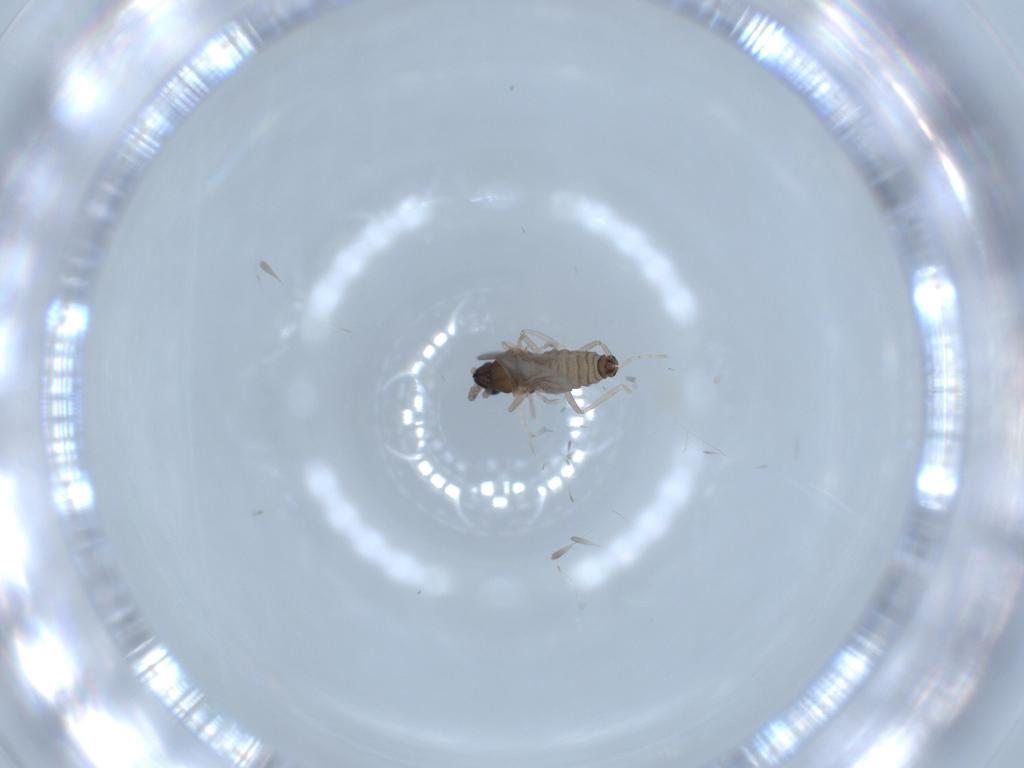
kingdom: Animalia
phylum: Arthropoda
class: Insecta
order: Diptera
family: Cecidomyiidae
